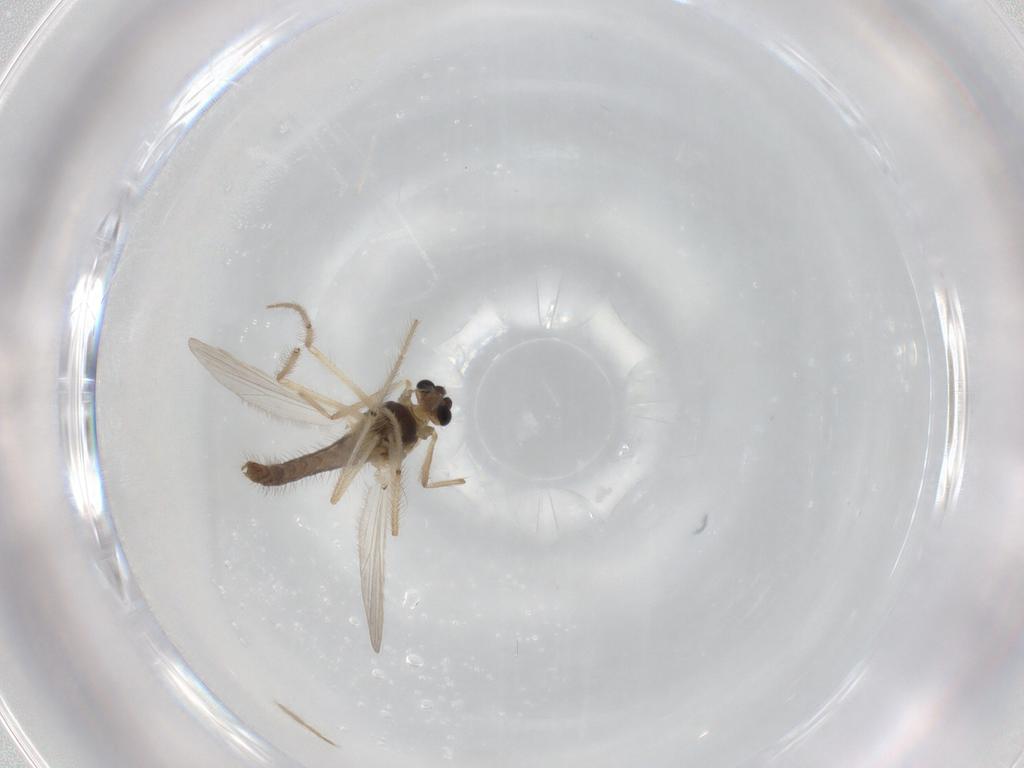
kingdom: Animalia
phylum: Arthropoda
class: Insecta
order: Diptera
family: Chironomidae
